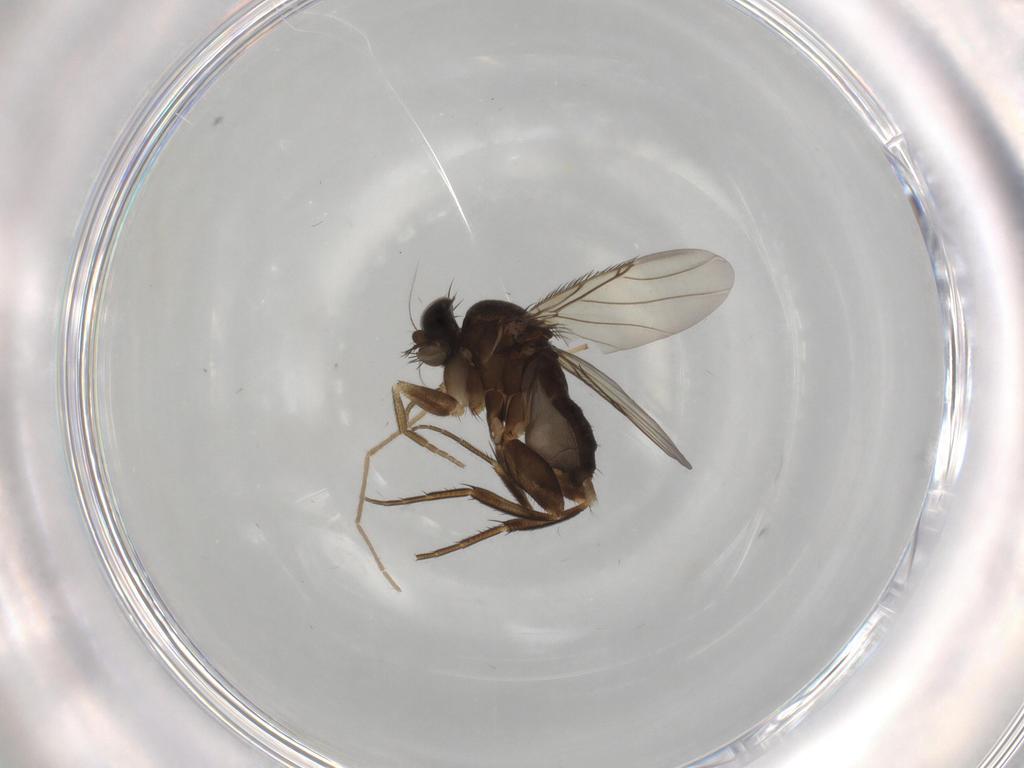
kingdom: Animalia
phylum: Arthropoda
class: Insecta
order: Diptera
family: Phoridae
